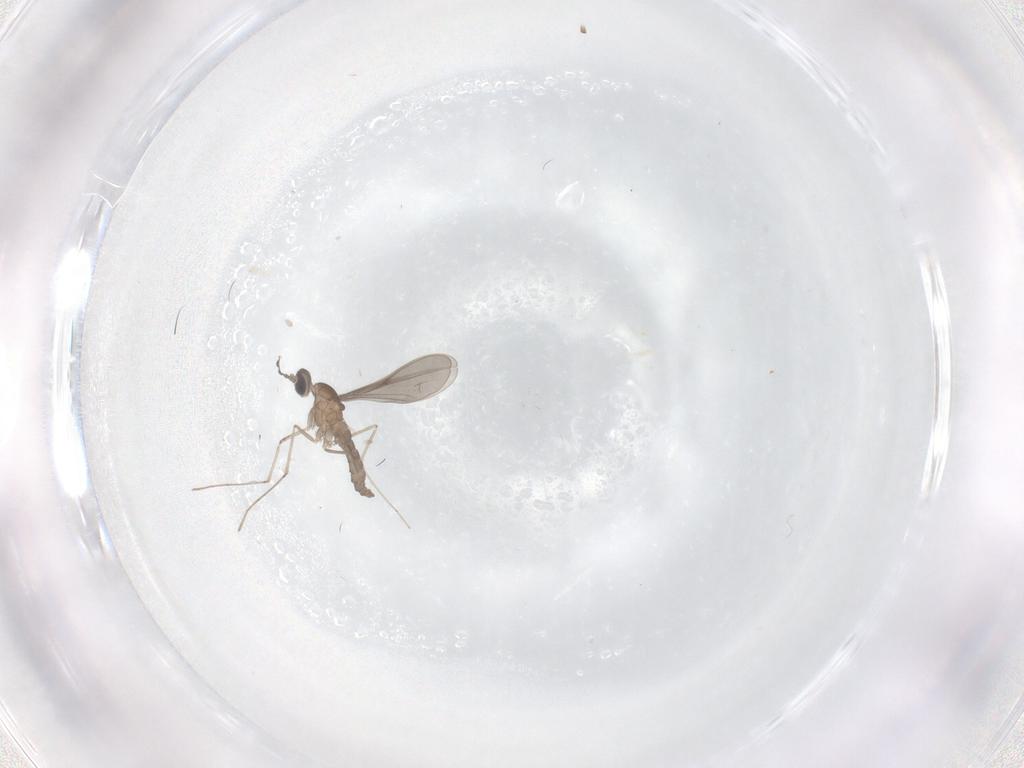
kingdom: Animalia
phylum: Arthropoda
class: Insecta
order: Diptera
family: Cecidomyiidae
